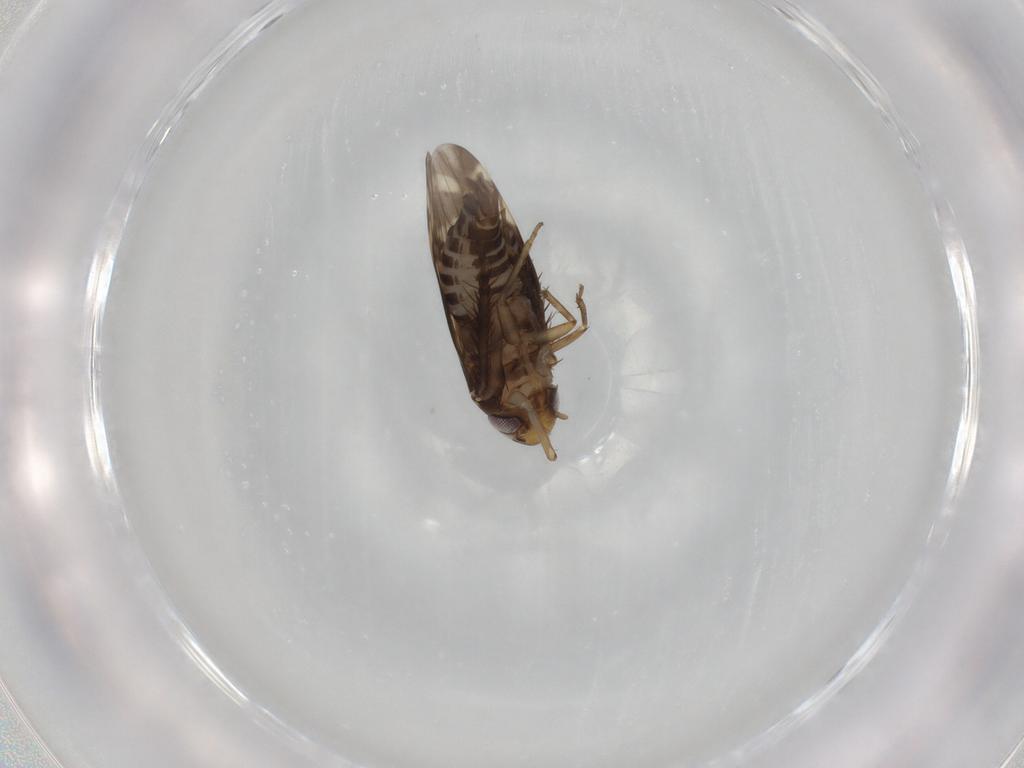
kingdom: Animalia
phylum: Arthropoda
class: Insecta
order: Hemiptera
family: Cicadellidae
